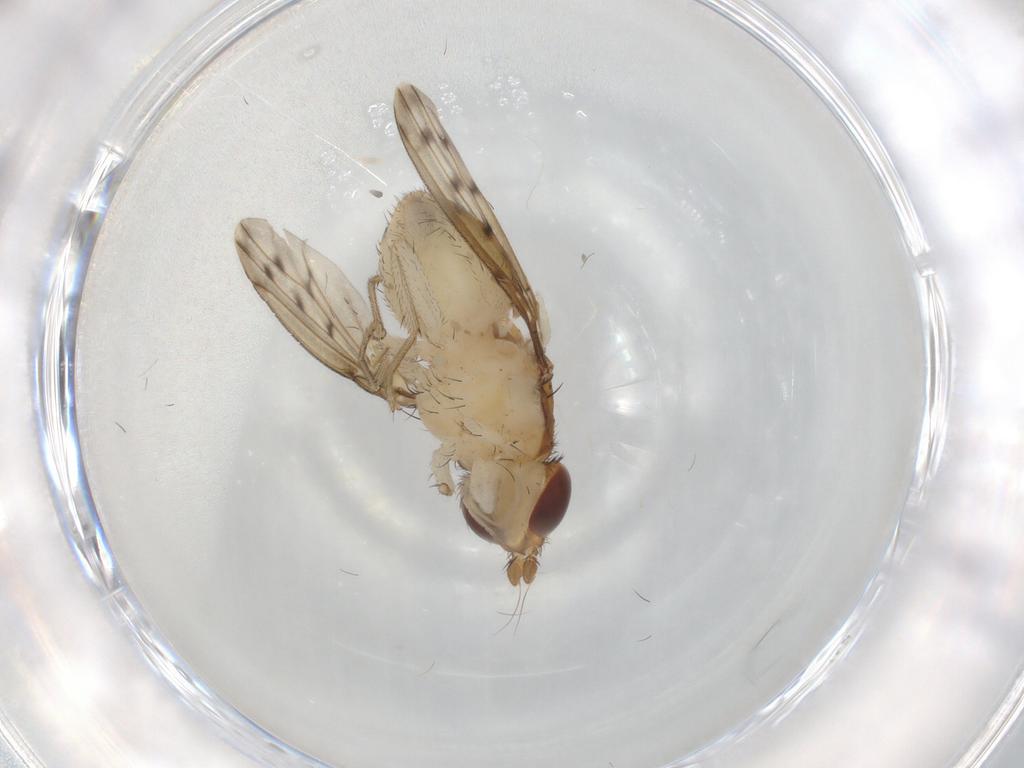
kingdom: Animalia
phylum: Arthropoda
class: Insecta
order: Diptera
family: Lauxaniidae
